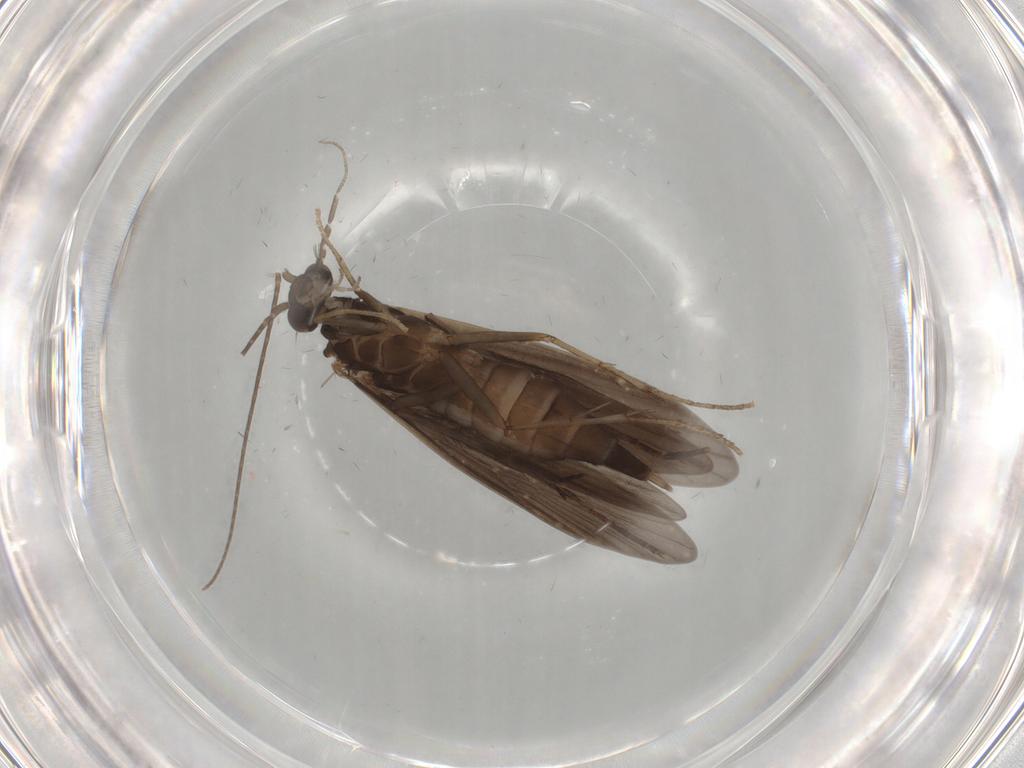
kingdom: Animalia
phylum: Arthropoda
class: Insecta
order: Trichoptera
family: Xiphocentronidae
